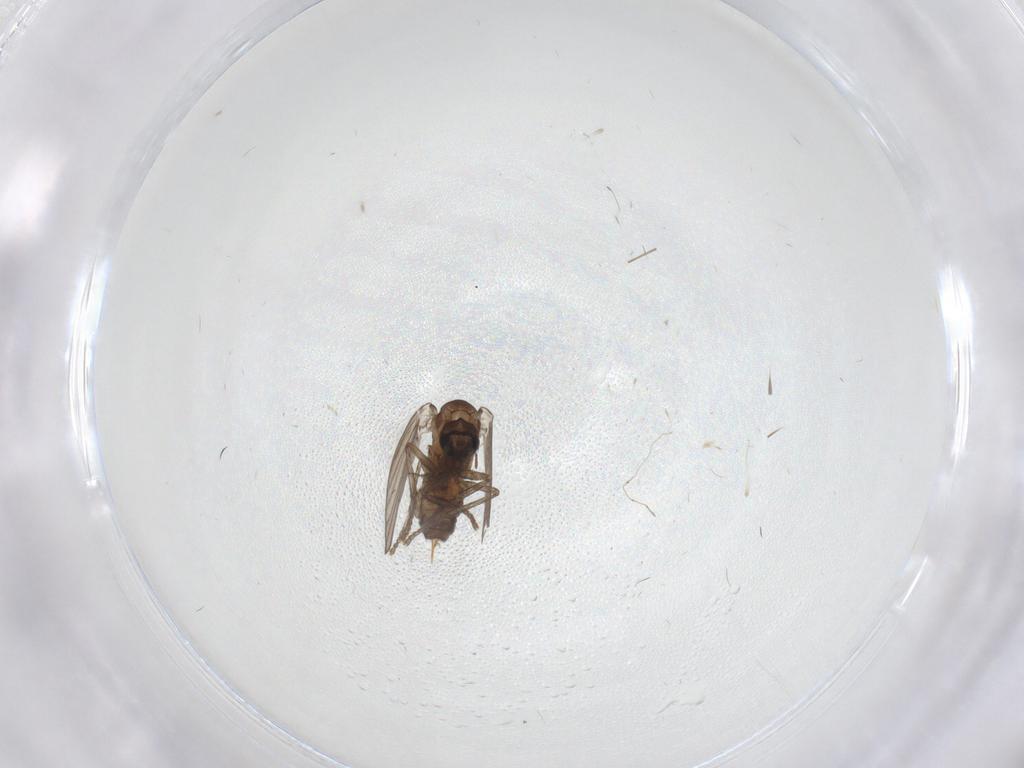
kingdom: Animalia
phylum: Arthropoda
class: Insecta
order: Diptera
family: Psychodidae
